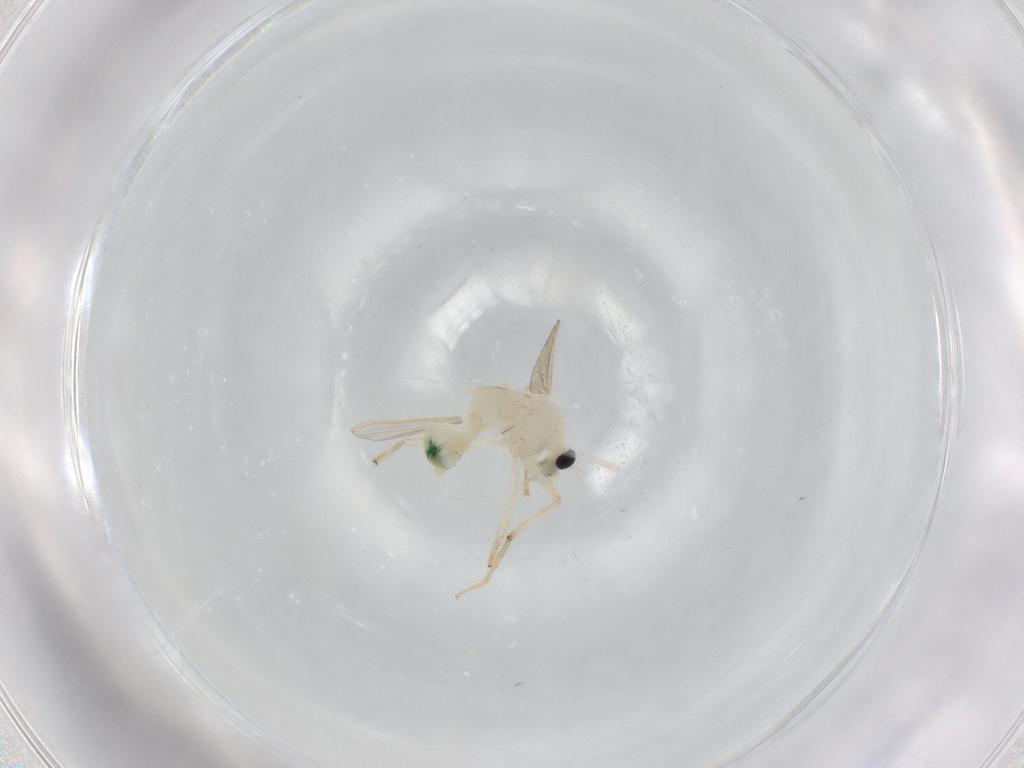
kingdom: Animalia
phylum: Arthropoda
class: Insecta
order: Diptera
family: Chironomidae
